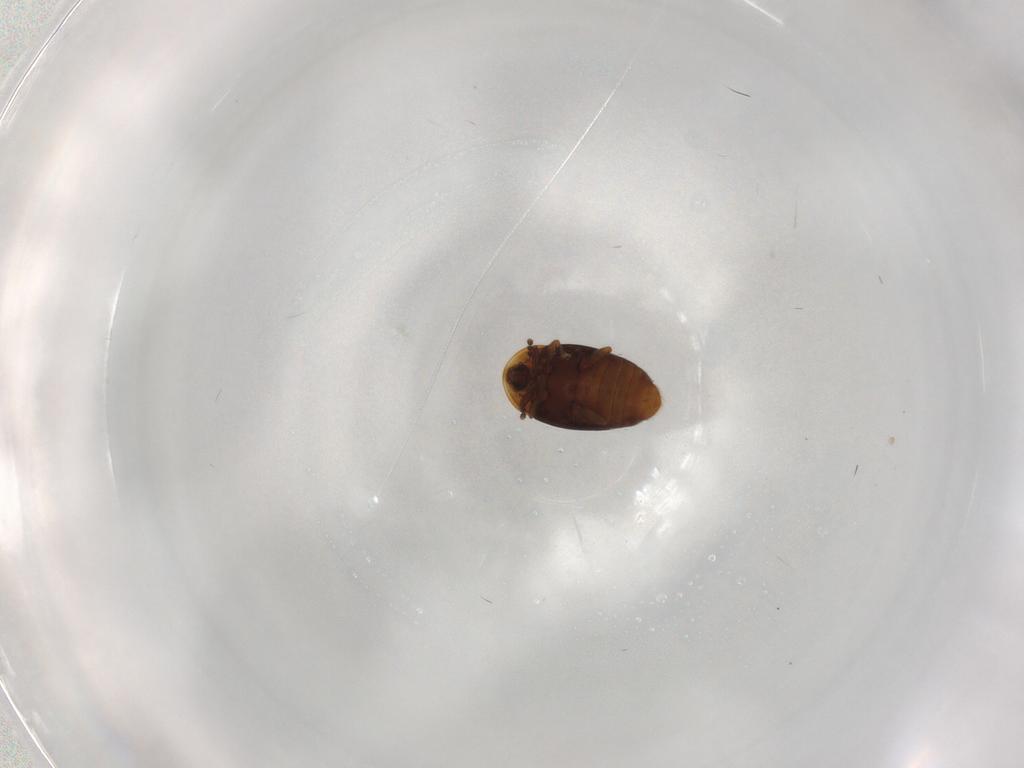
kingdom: Animalia
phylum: Arthropoda
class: Insecta
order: Coleoptera
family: Corylophidae
